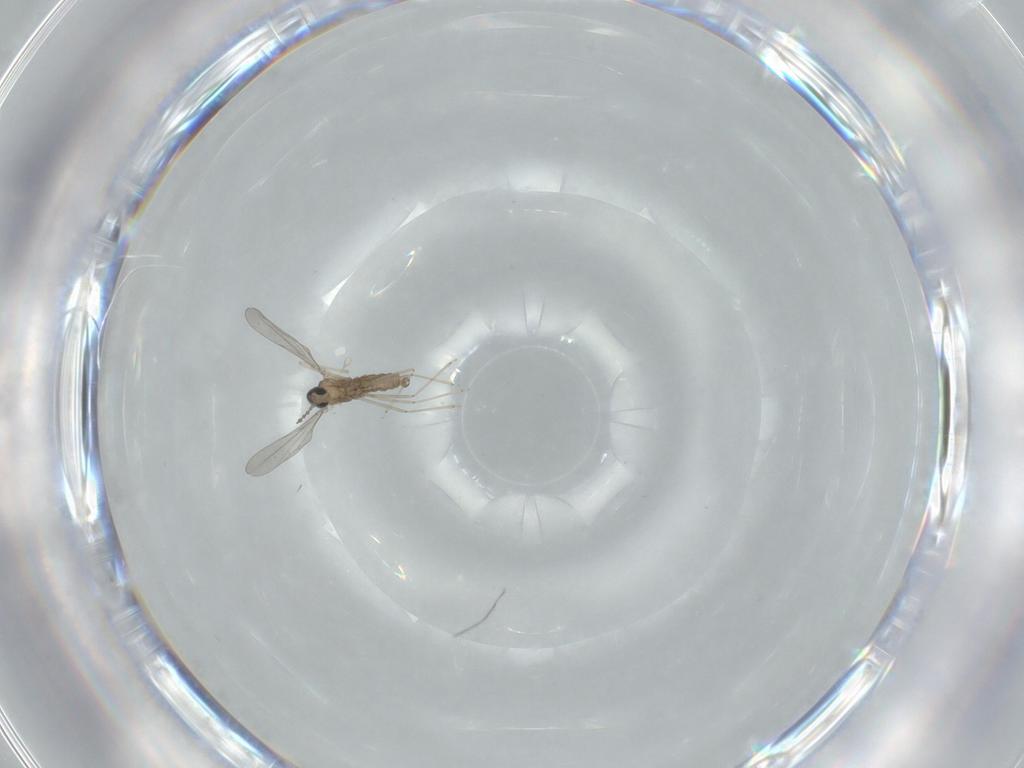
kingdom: Animalia
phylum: Arthropoda
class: Insecta
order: Diptera
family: Cecidomyiidae
